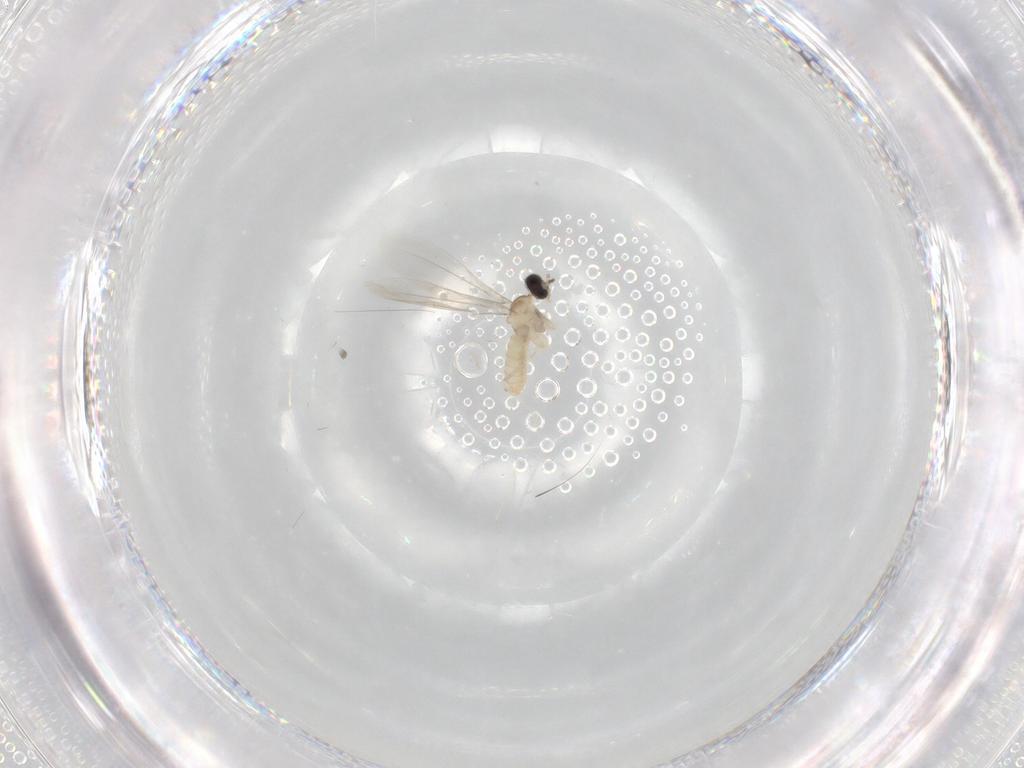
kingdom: Animalia
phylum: Arthropoda
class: Insecta
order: Diptera
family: Cecidomyiidae
